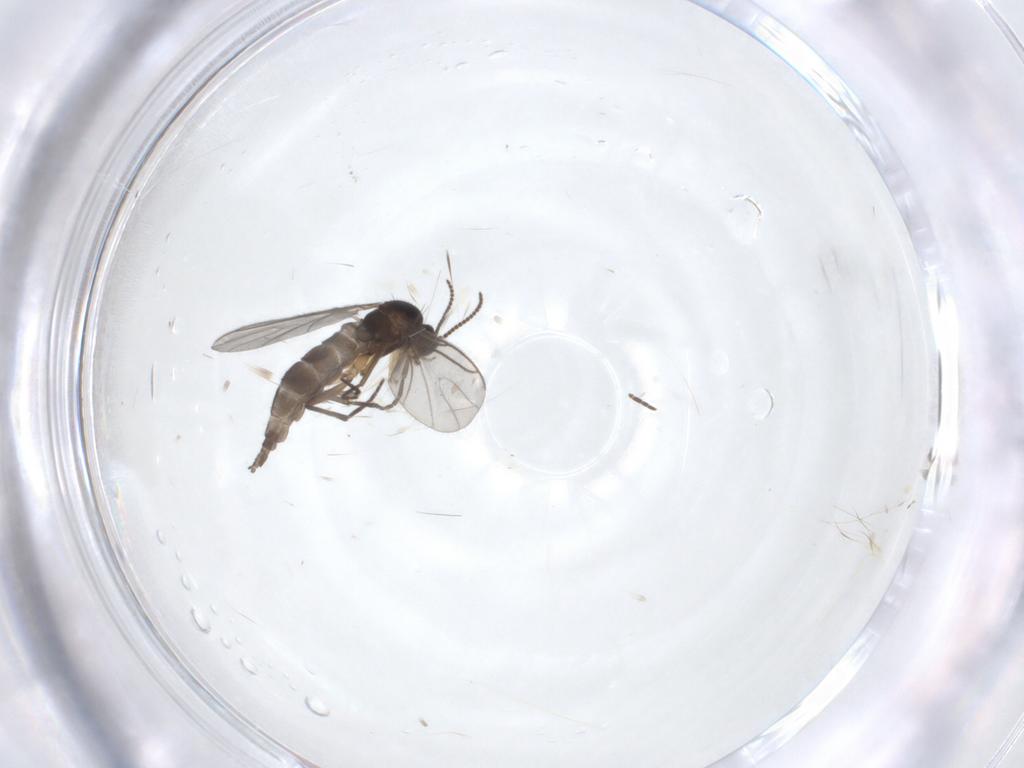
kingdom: Animalia
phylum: Arthropoda
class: Insecta
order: Diptera
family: Sciaridae
